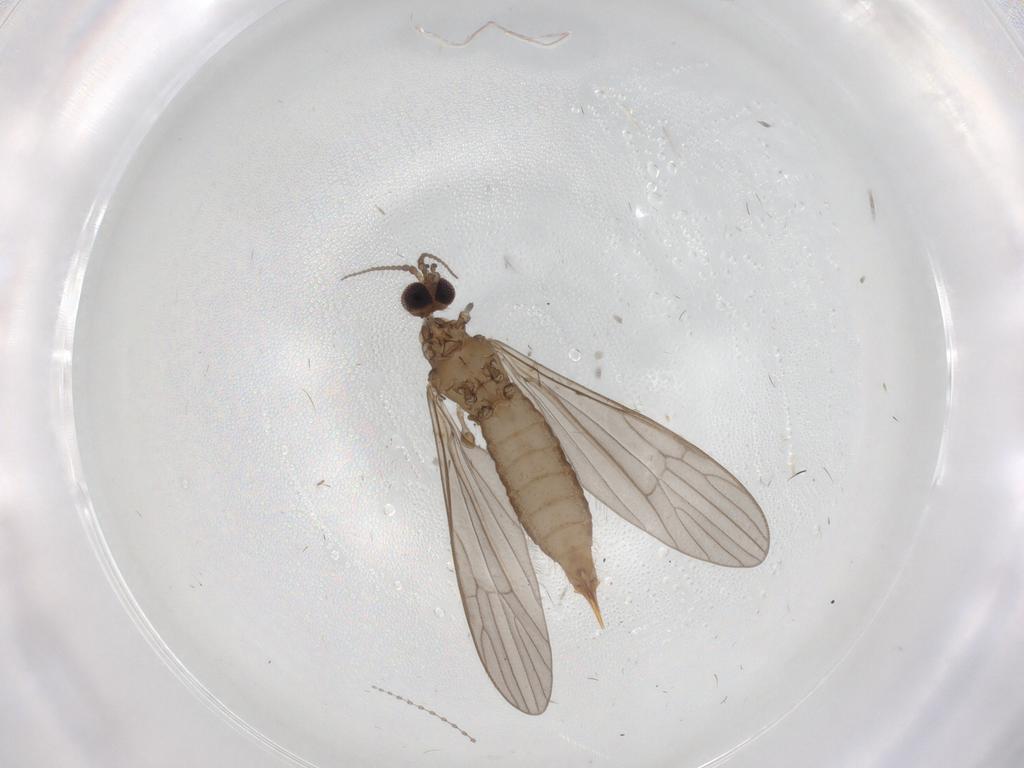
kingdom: Animalia
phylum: Arthropoda
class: Insecta
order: Diptera
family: Limoniidae
